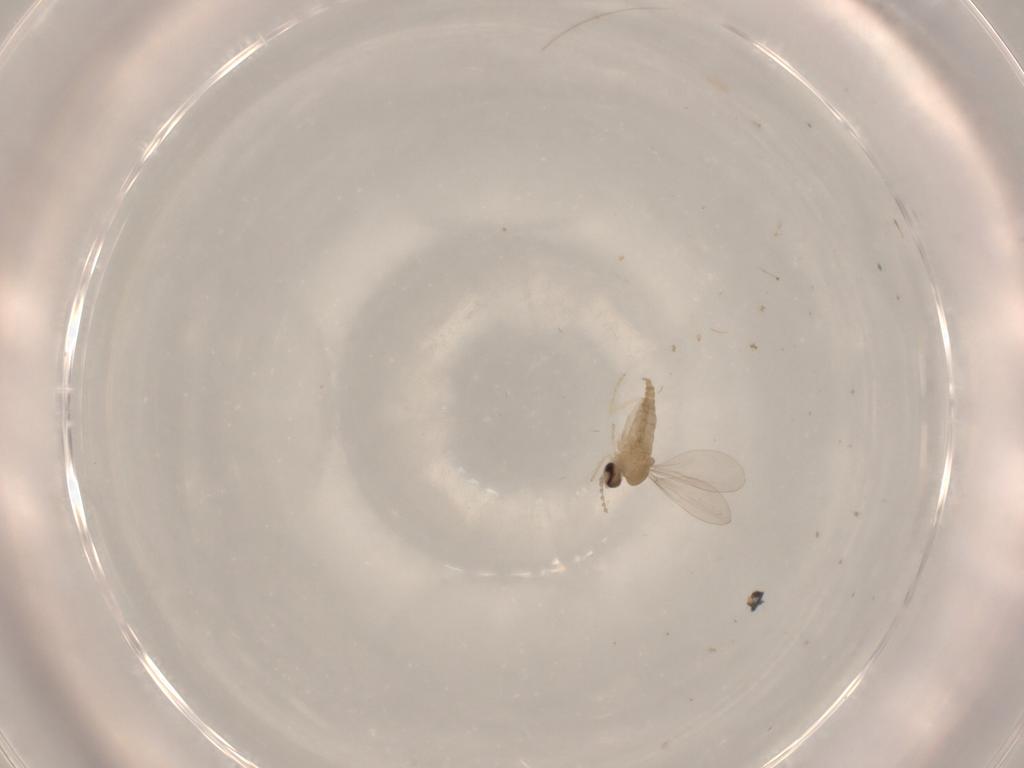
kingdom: Animalia
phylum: Arthropoda
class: Insecta
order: Diptera
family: Cecidomyiidae
